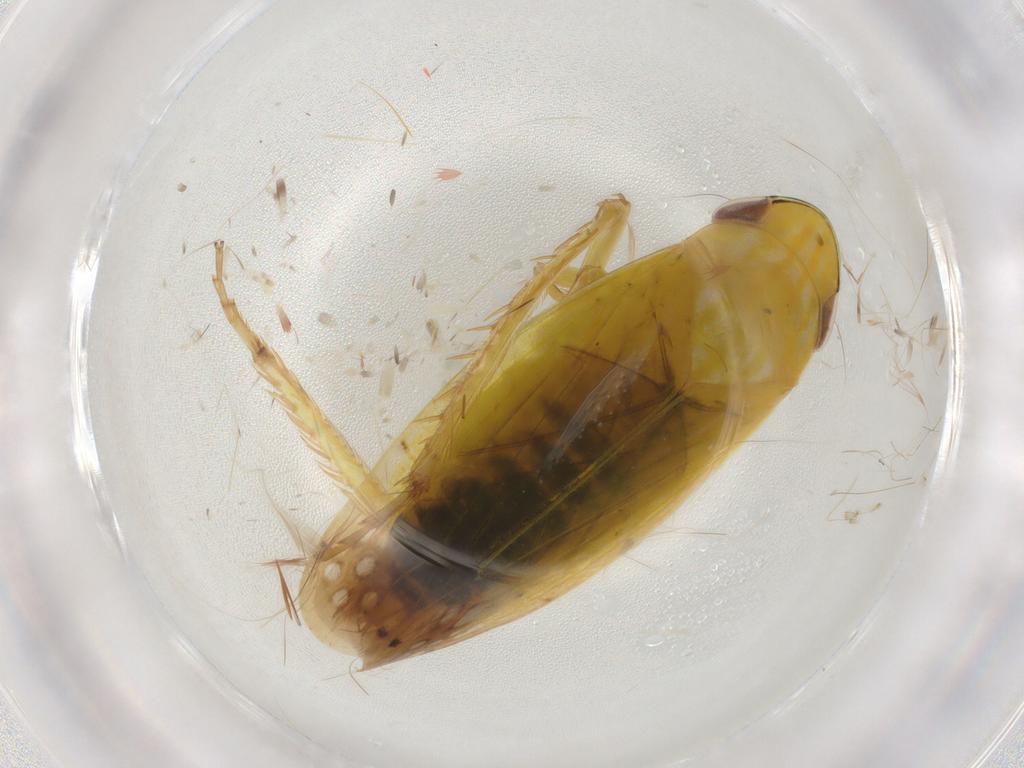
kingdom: Animalia
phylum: Arthropoda
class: Insecta
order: Hemiptera
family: Cicadellidae
